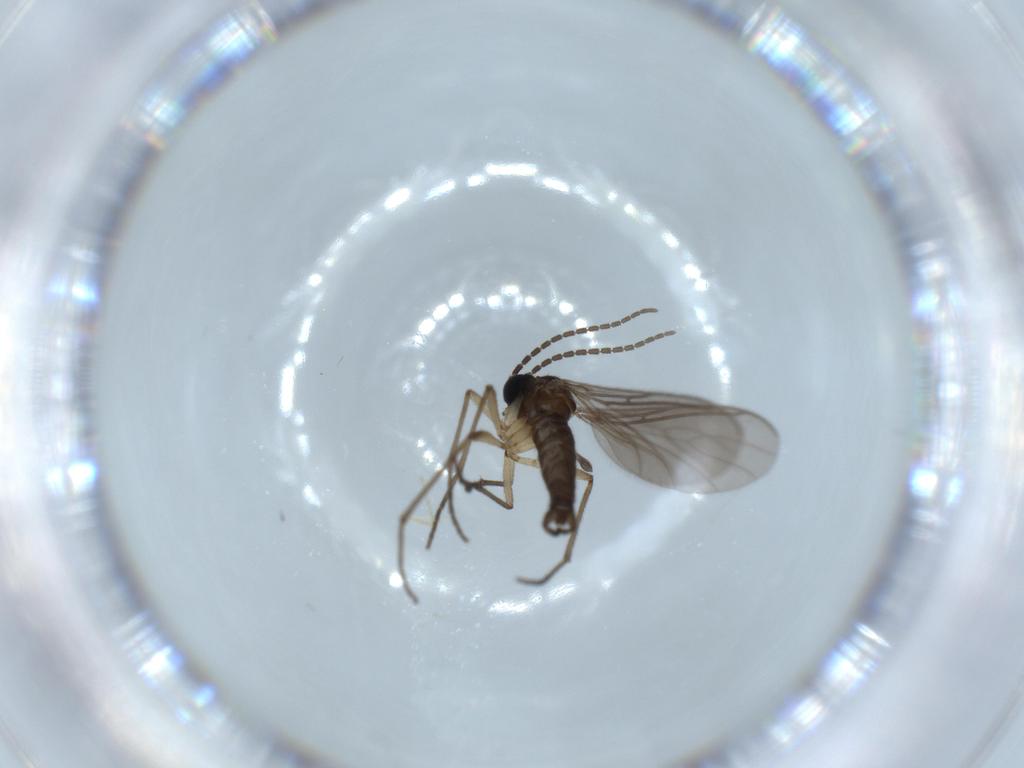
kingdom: Animalia
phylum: Arthropoda
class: Insecta
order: Diptera
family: Sciaridae
